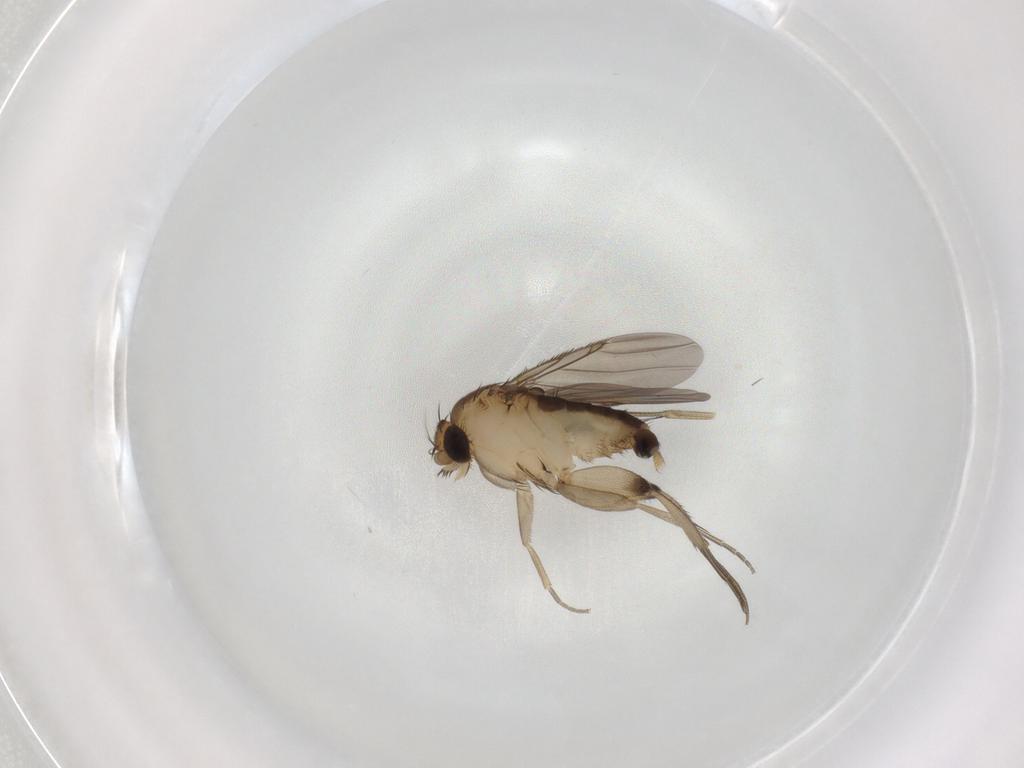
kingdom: Animalia
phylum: Arthropoda
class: Insecta
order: Diptera
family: Phoridae
